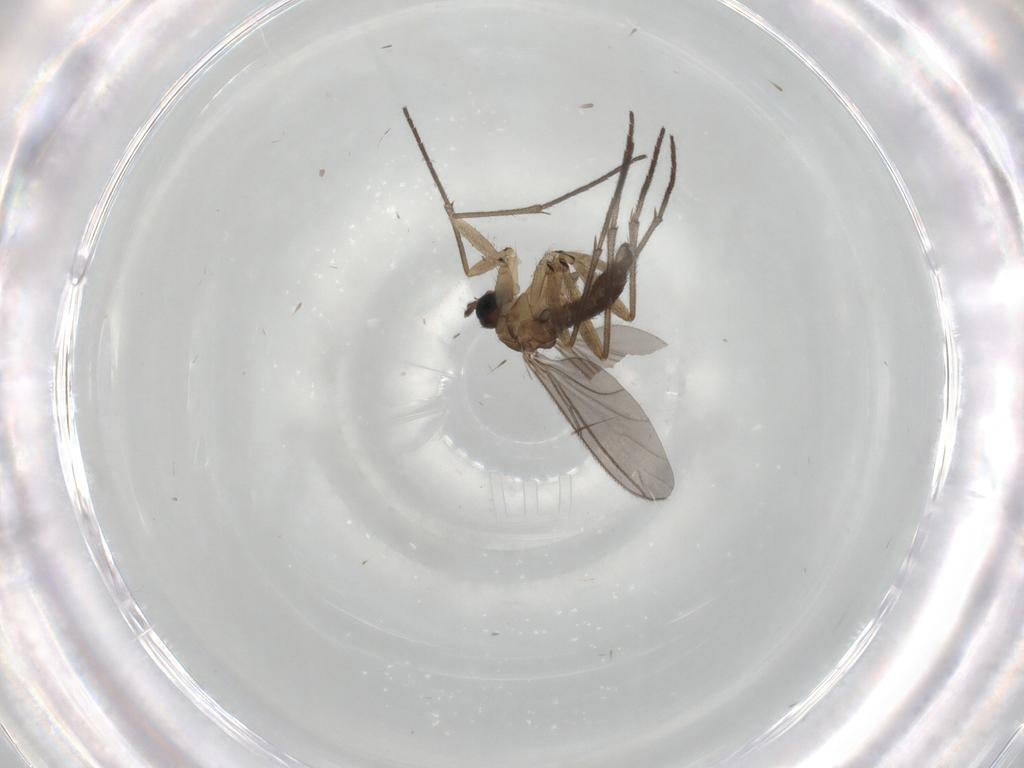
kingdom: Animalia
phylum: Arthropoda
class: Insecta
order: Diptera
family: Sciaridae
